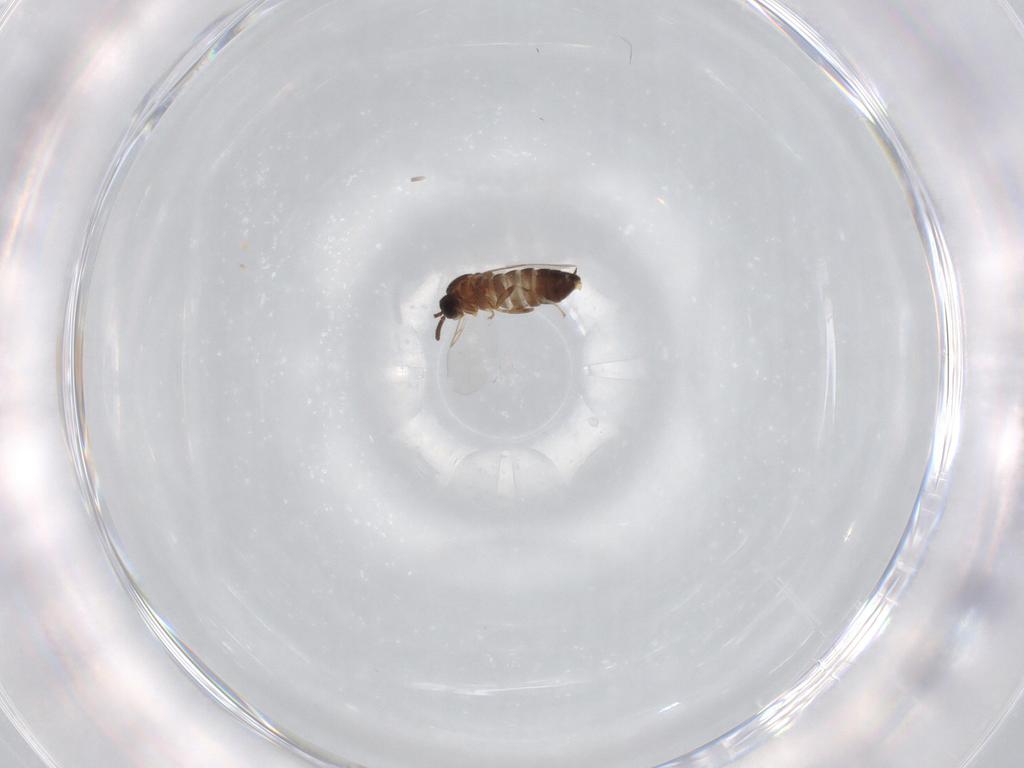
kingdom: Animalia
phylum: Arthropoda
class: Insecta
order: Diptera
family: Scatopsidae
